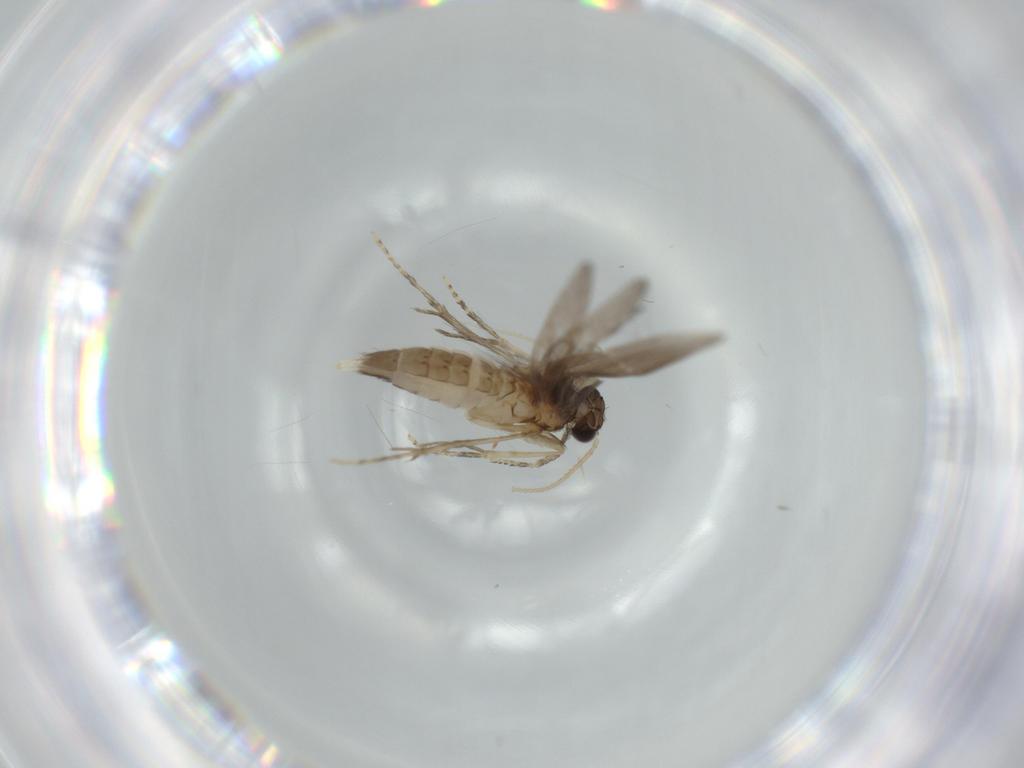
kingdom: Animalia
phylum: Arthropoda
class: Insecta
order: Trichoptera
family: Hydroptilidae
